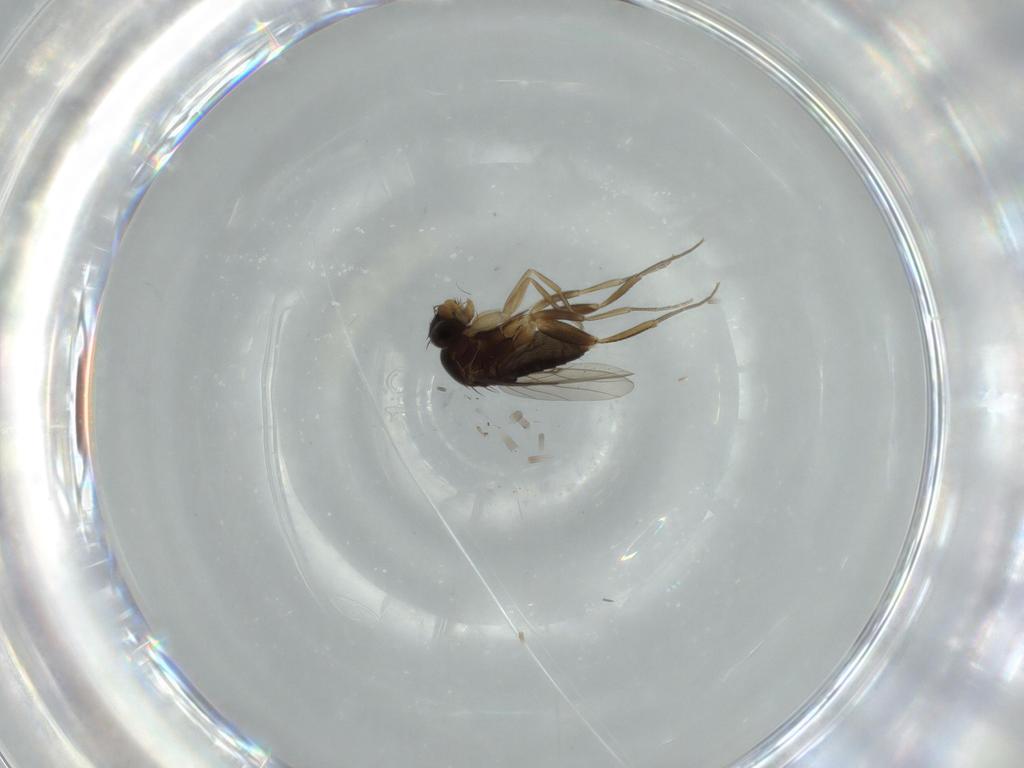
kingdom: Animalia
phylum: Arthropoda
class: Insecta
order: Diptera
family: Phoridae
